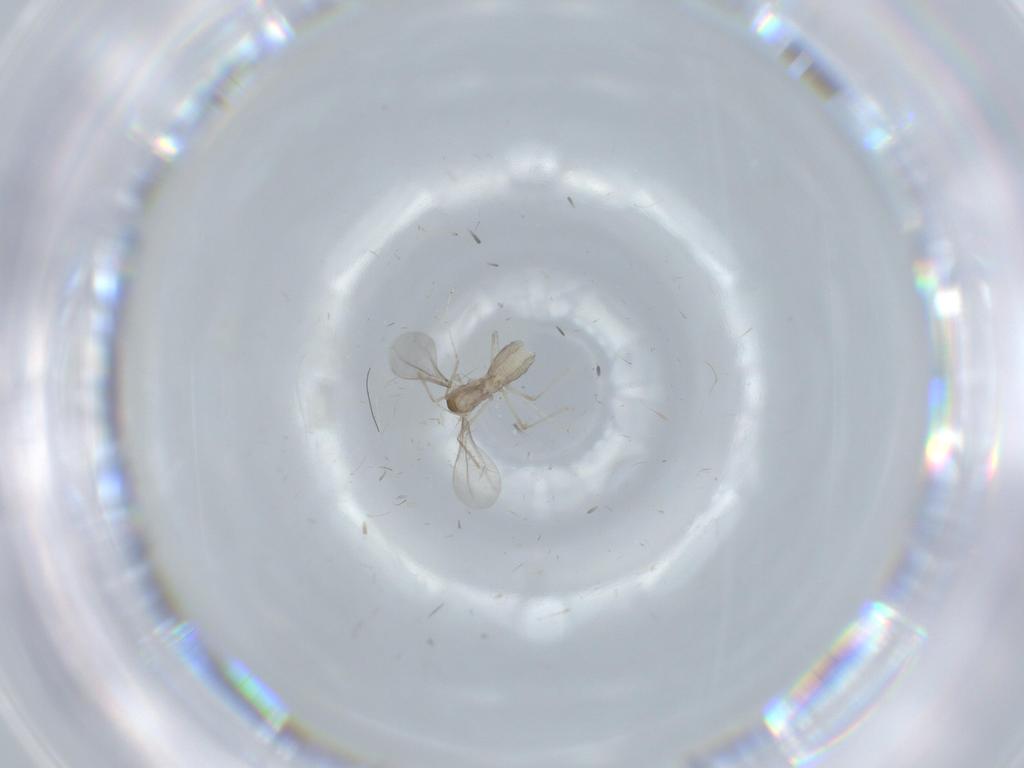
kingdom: Animalia
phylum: Arthropoda
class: Insecta
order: Diptera
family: Cecidomyiidae
